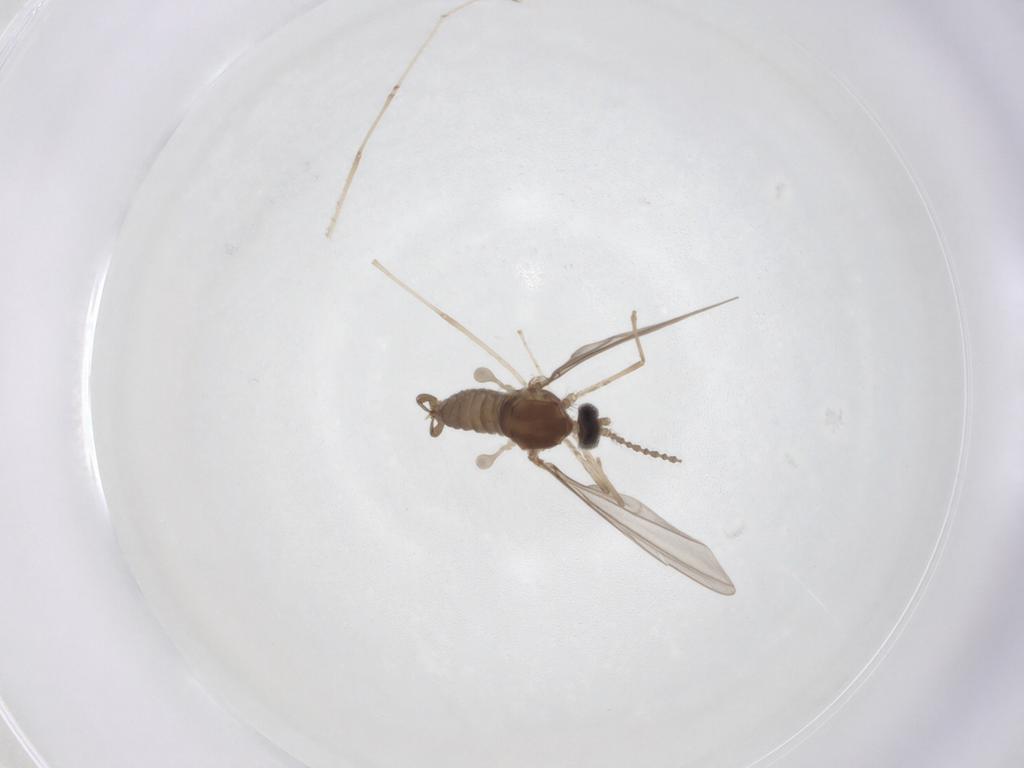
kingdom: Animalia
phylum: Arthropoda
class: Insecta
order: Diptera
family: Cecidomyiidae
